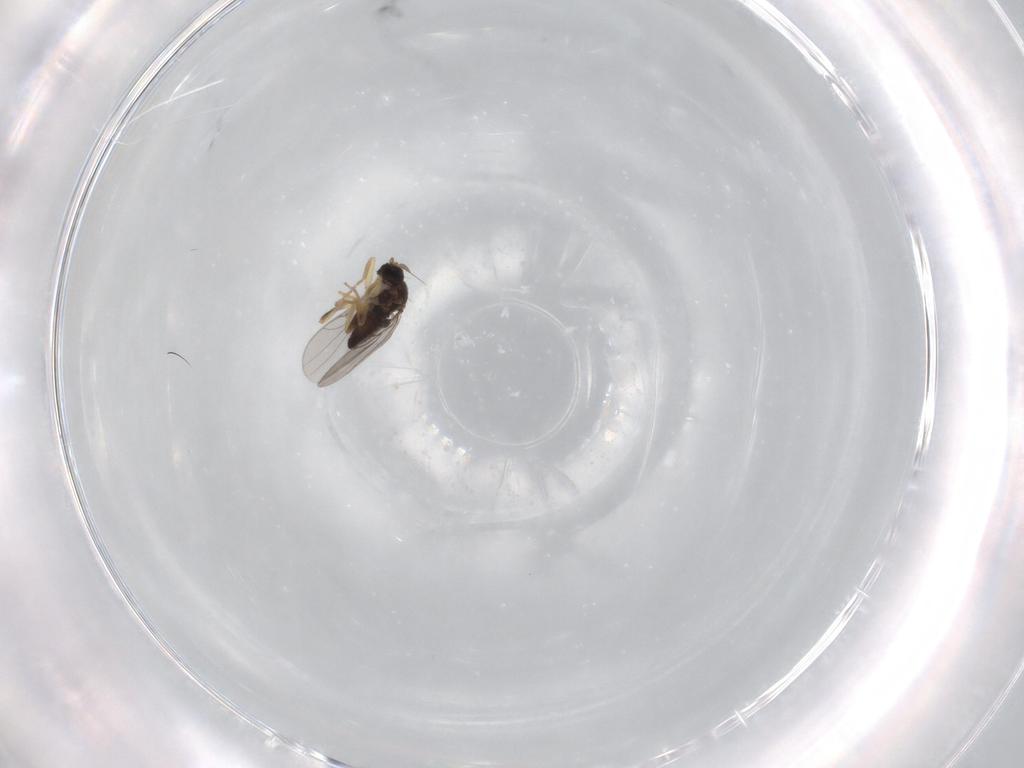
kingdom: Animalia
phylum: Arthropoda
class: Insecta
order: Diptera
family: Hybotidae
